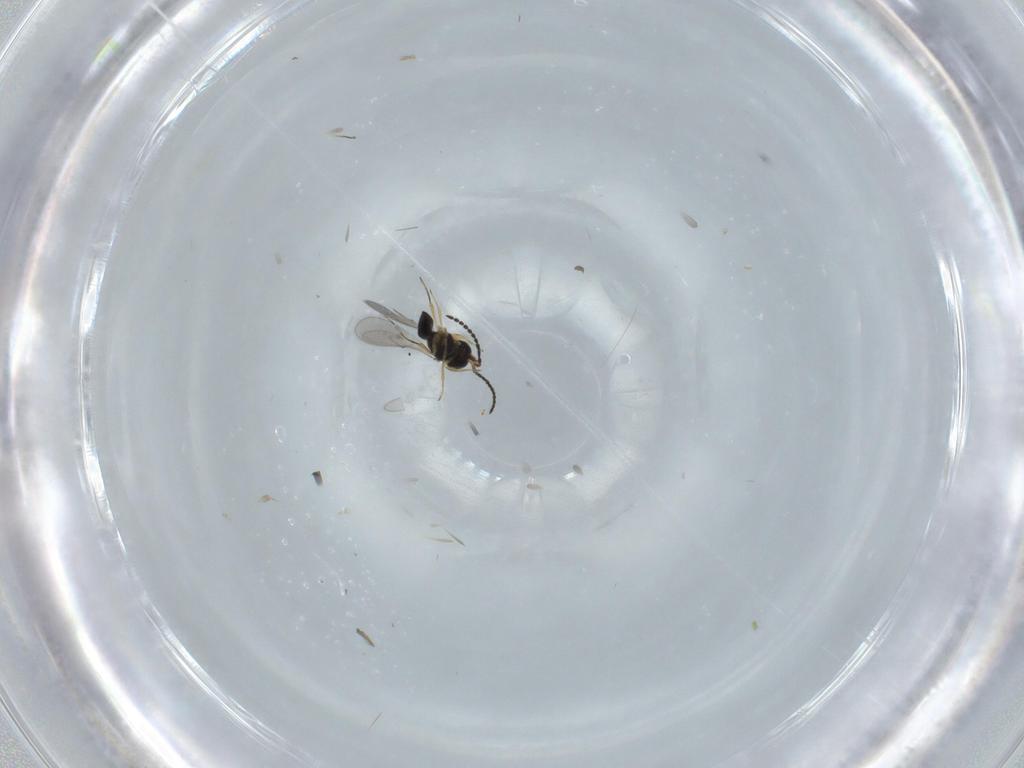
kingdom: Animalia
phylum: Arthropoda
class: Insecta
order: Hymenoptera
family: Scelionidae
